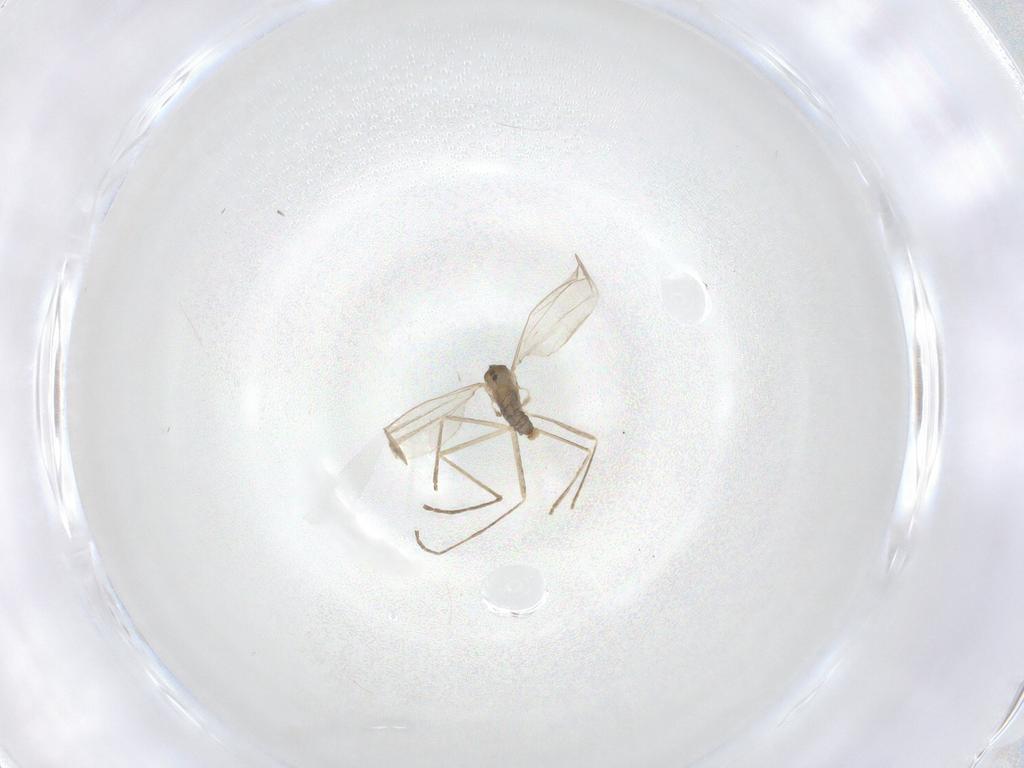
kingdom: Animalia
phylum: Arthropoda
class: Insecta
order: Diptera
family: Cecidomyiidae
